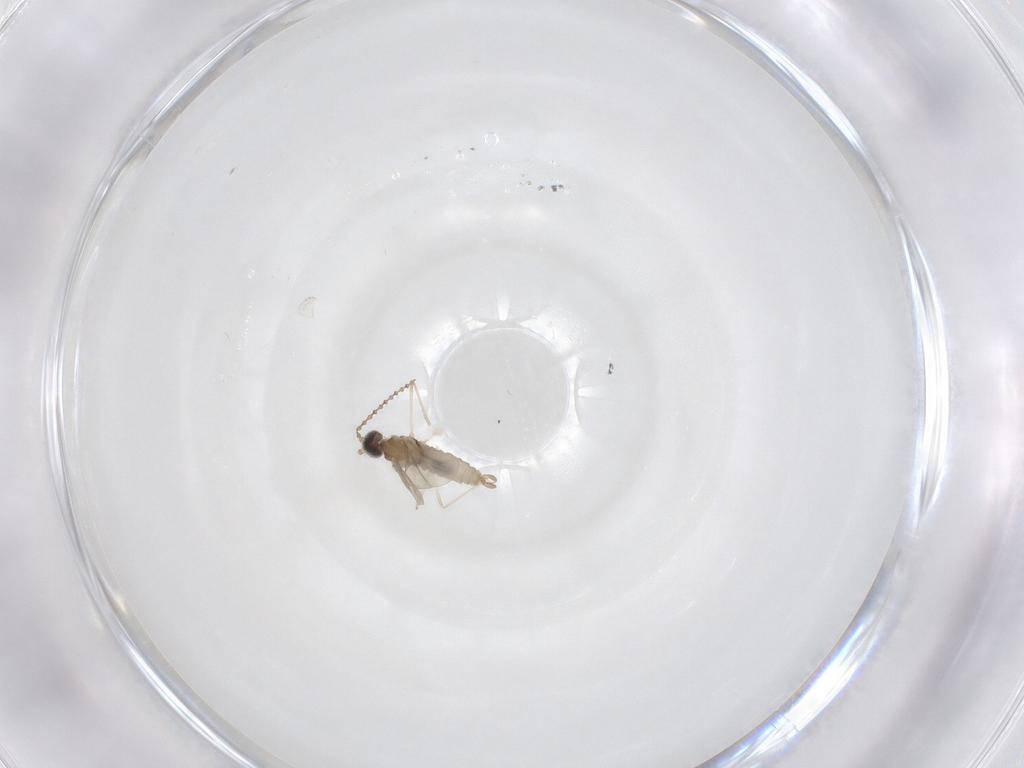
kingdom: Animalia
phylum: Arthropoda
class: Insecta
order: Diptera
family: Cecidomyiidae
